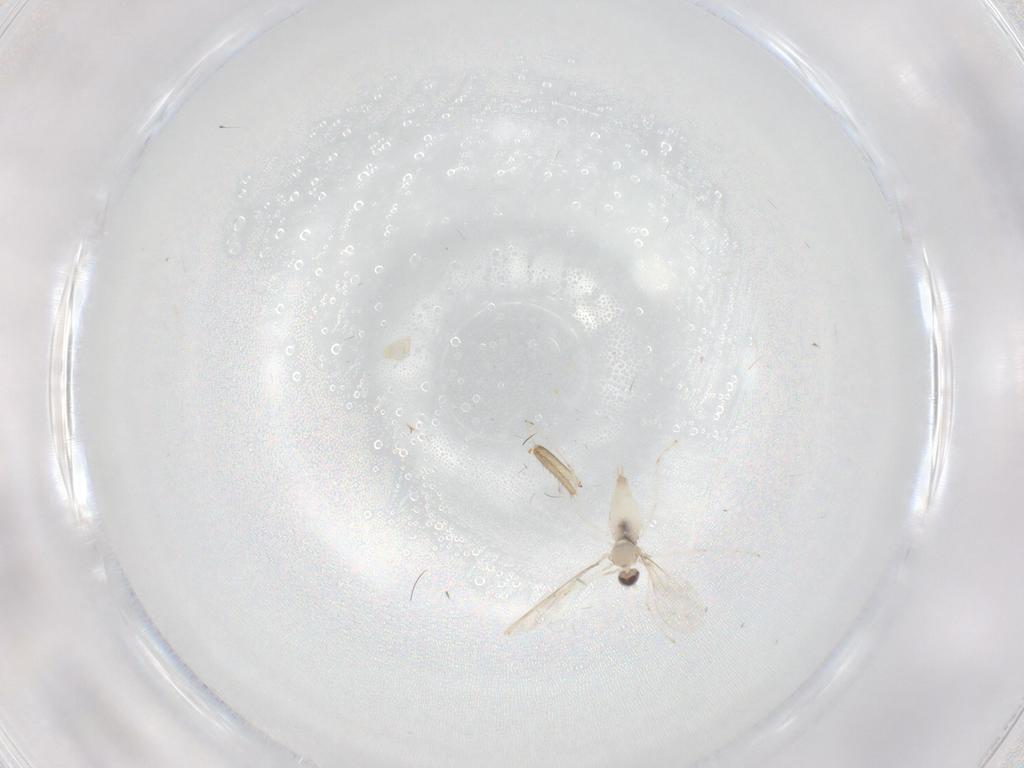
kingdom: Animalia
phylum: Arthropoda
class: Insecta
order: Diptera
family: Ceratopogonidae
